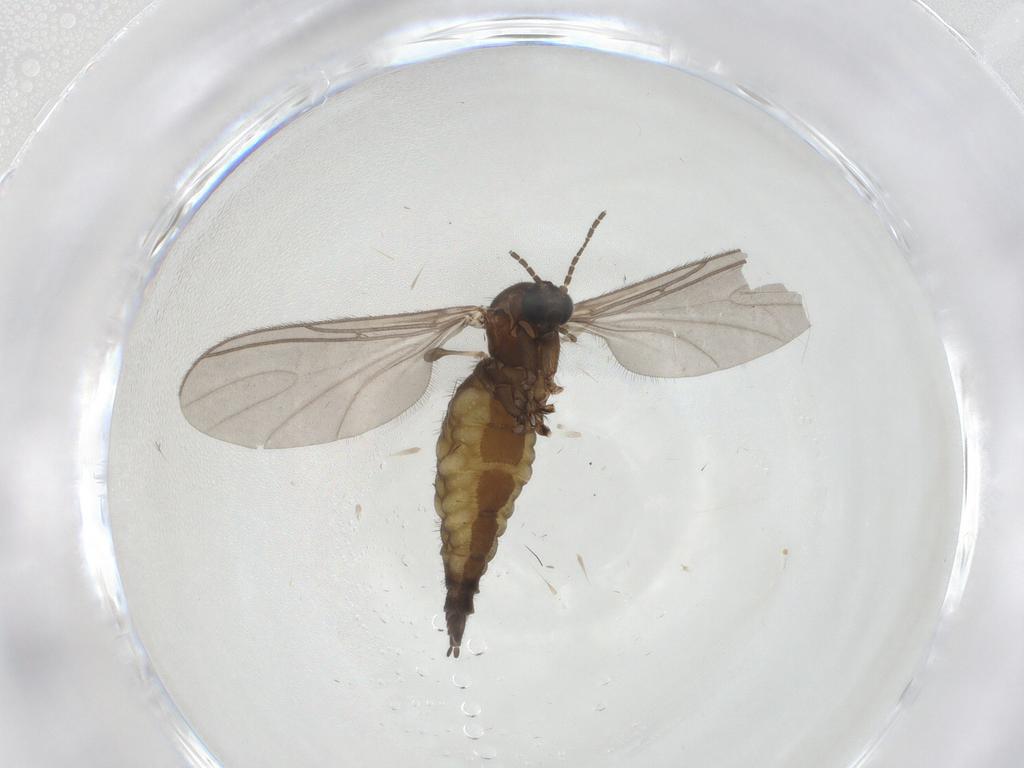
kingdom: Animalia
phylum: Arthropoda
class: Insecta
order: Diptera
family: Sciaridae
